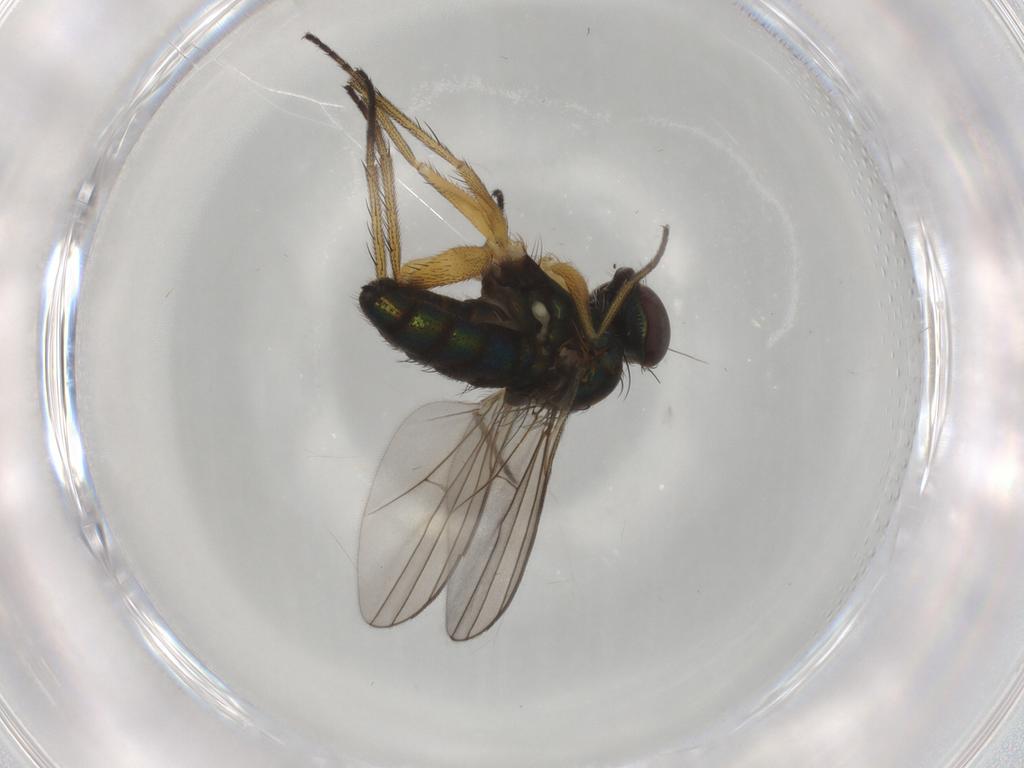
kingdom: Animalia
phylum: Arthropoda
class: Insecta
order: Diptera
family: Dolichopodidae
